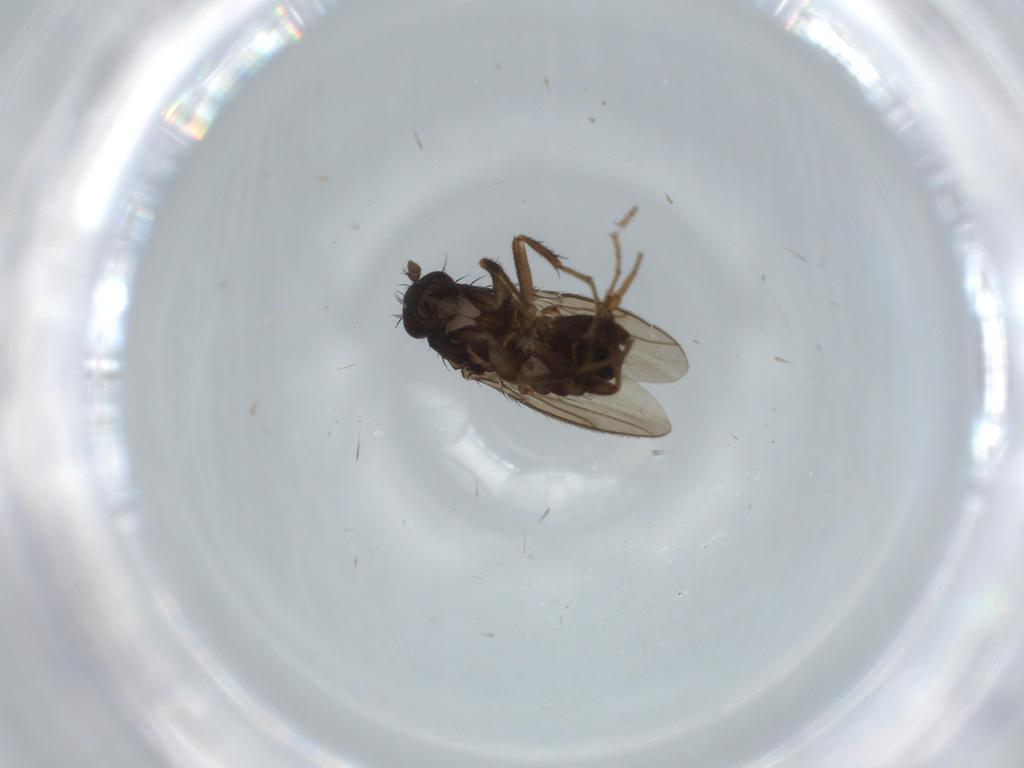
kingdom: Animalia
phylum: Arthropoda
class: Insecta
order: Diptera
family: Sphaeroceridae
